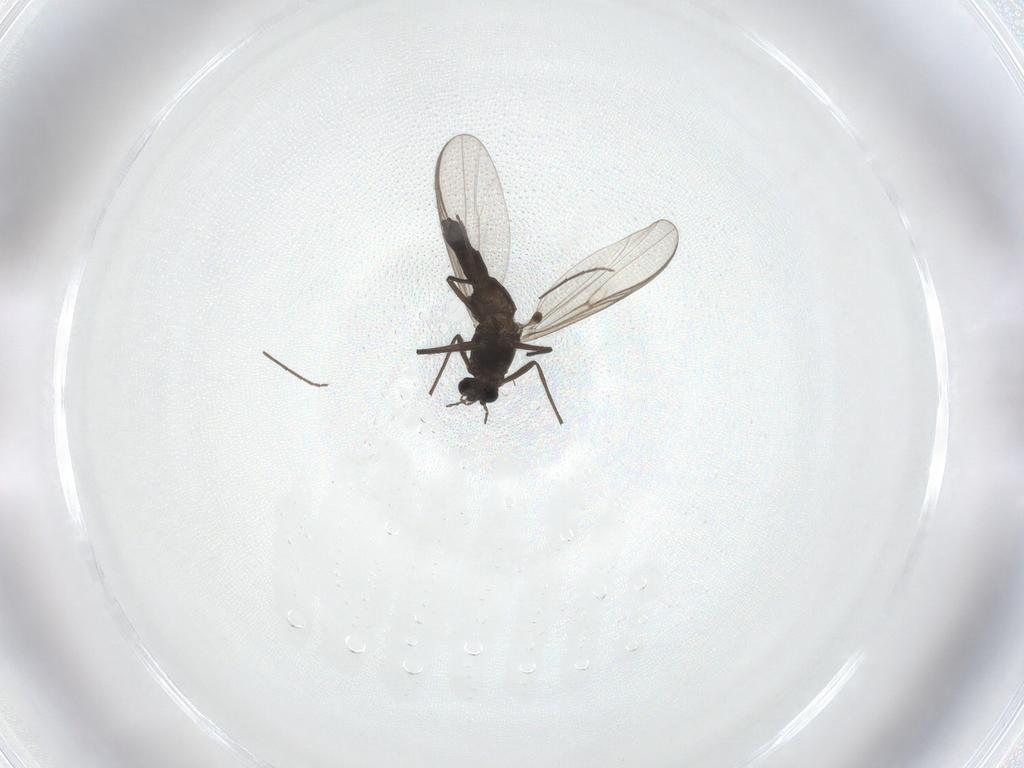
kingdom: Animalia
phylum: Arthropoda
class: Insecta
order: Diptera
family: Chironomidae
